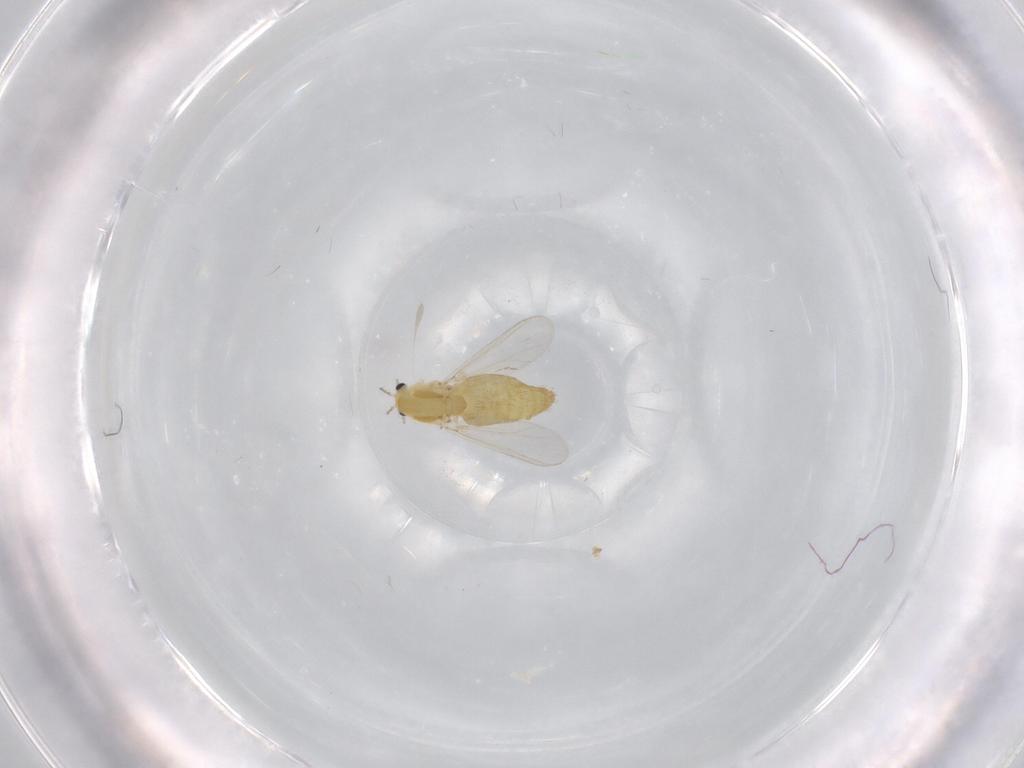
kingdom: Animalia
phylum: Arthropoda
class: Insecta
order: Diptera
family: Chironomidae
